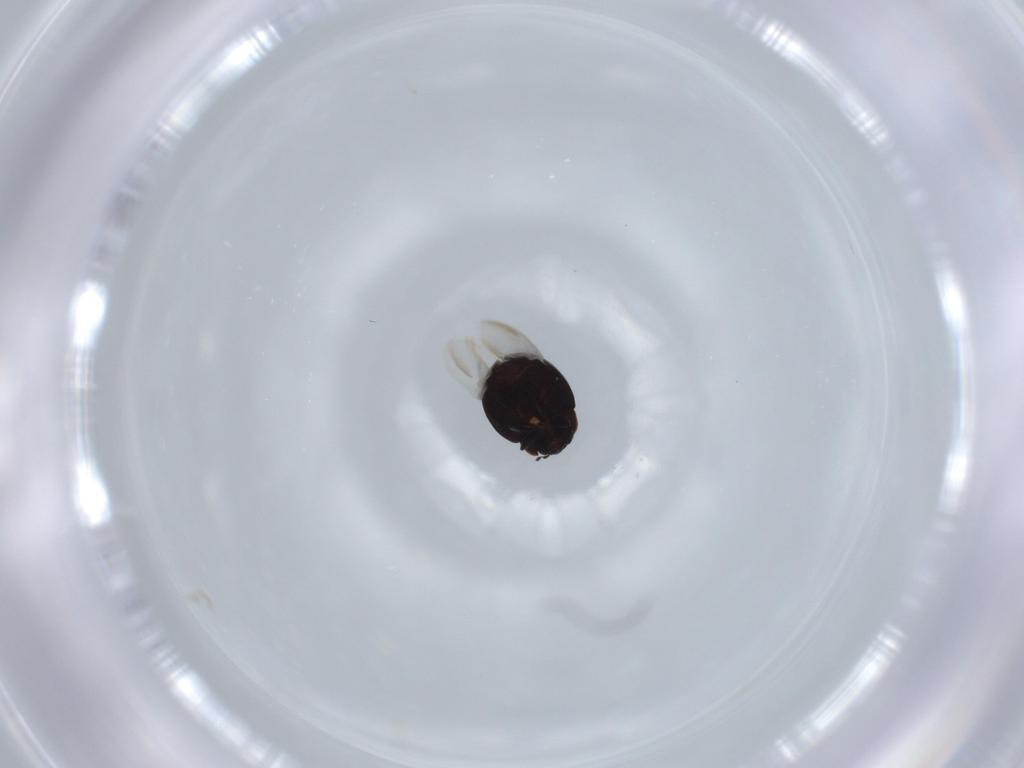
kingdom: Animalia
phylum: Arthropoda
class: Insecta
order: Coleoptera
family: Coccinellidae
